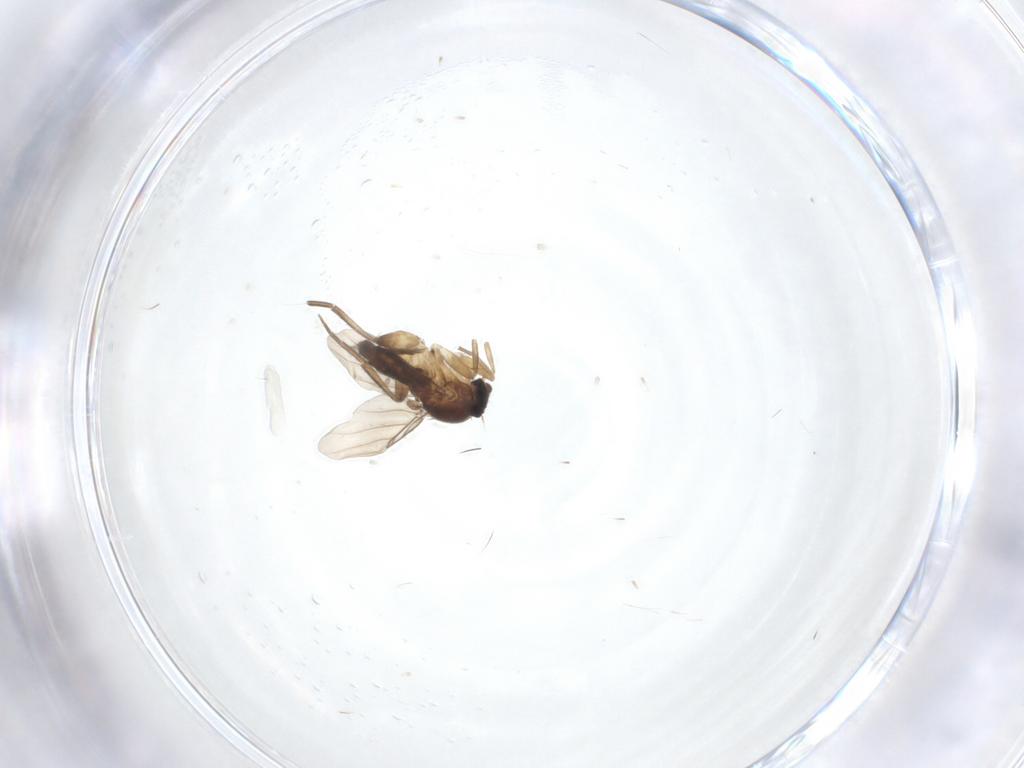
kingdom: Animalia
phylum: Arthropoda
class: Insecta
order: Diptera
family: Phoridae
